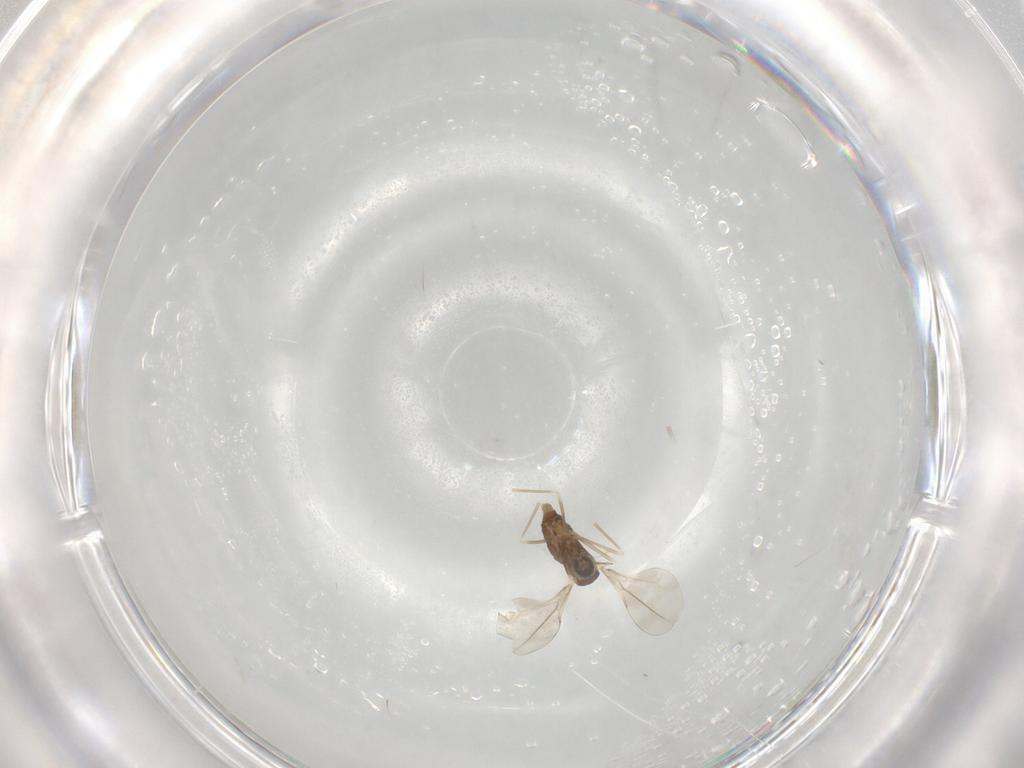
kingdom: Animalia
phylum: Arthropoda
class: Insecta
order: Diptera
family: Cecidomyiidae
